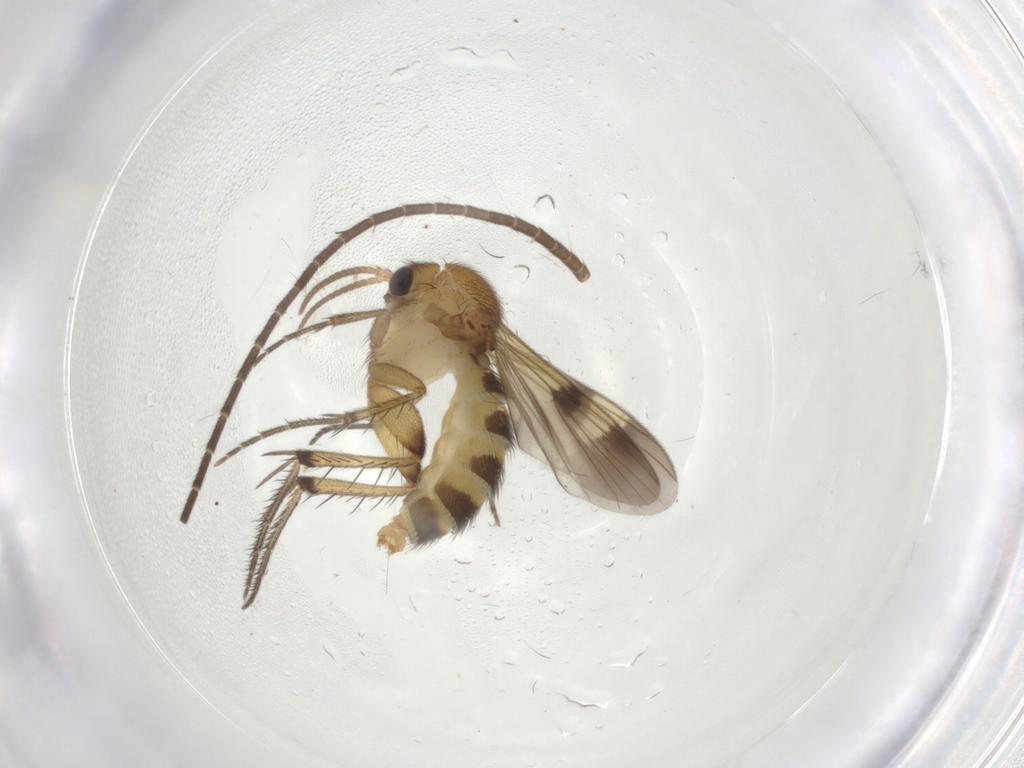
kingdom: Animalia
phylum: Arthropoda
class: Insecta
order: Diptera
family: Mycetophilidae
